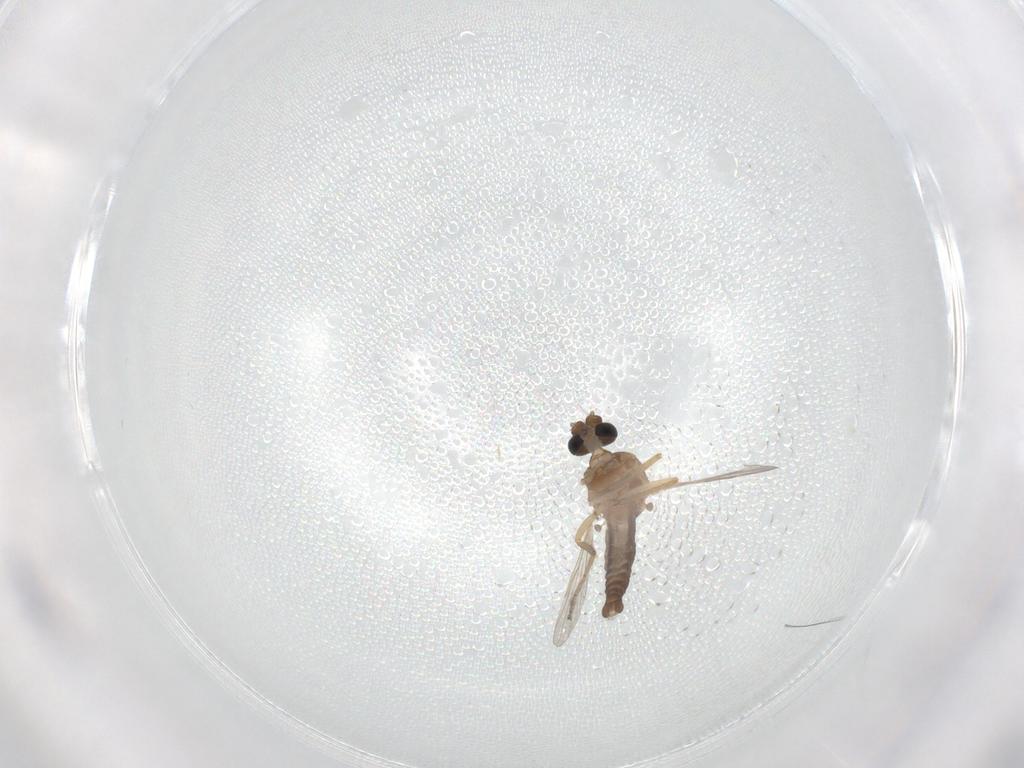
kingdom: Animalia
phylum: Arthropoda
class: Insecta
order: Diptera
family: Ceratopogonidae
